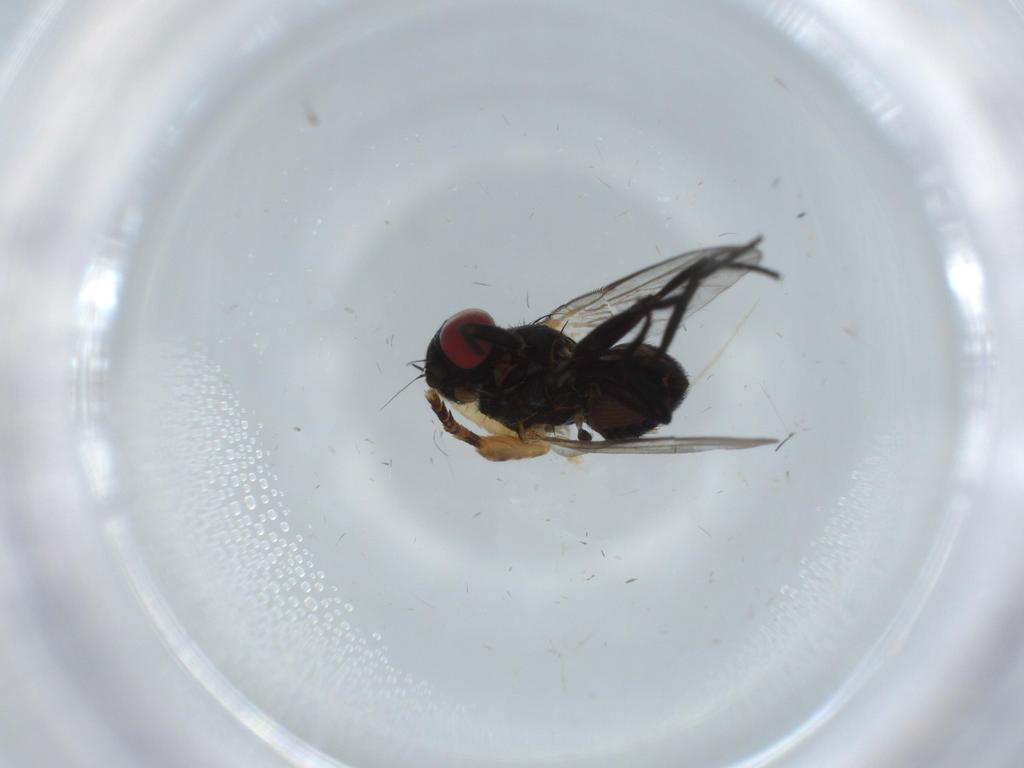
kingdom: Animalia
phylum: Arthropoda
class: Insecta
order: Diptera
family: Agromyzidae
